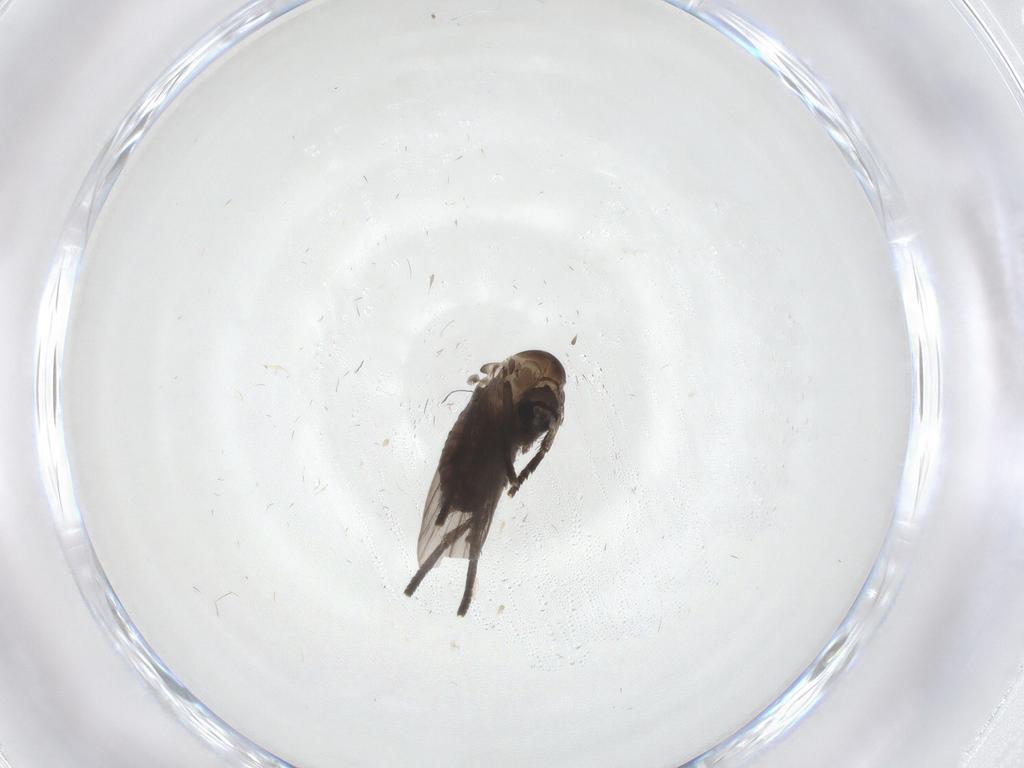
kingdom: Animalia
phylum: Arthropoda
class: Insecta
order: Diptera
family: Psychodidae
